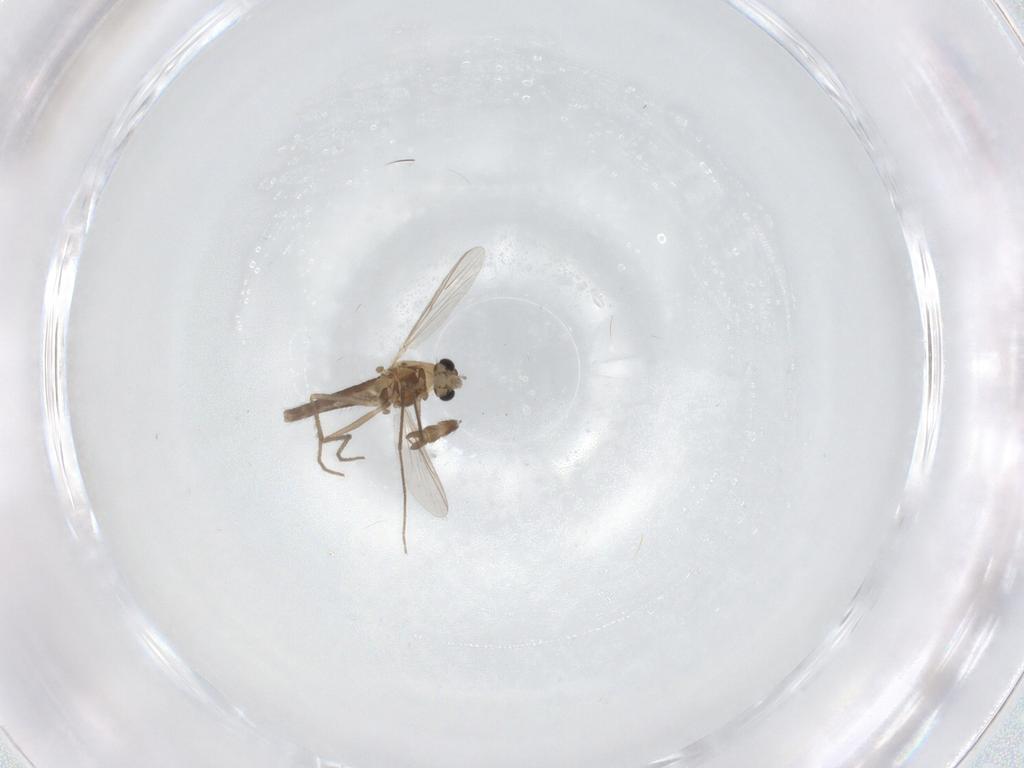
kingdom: Animalia
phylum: Arthropoda
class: Insecta
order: Diptera
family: Chironomidae
